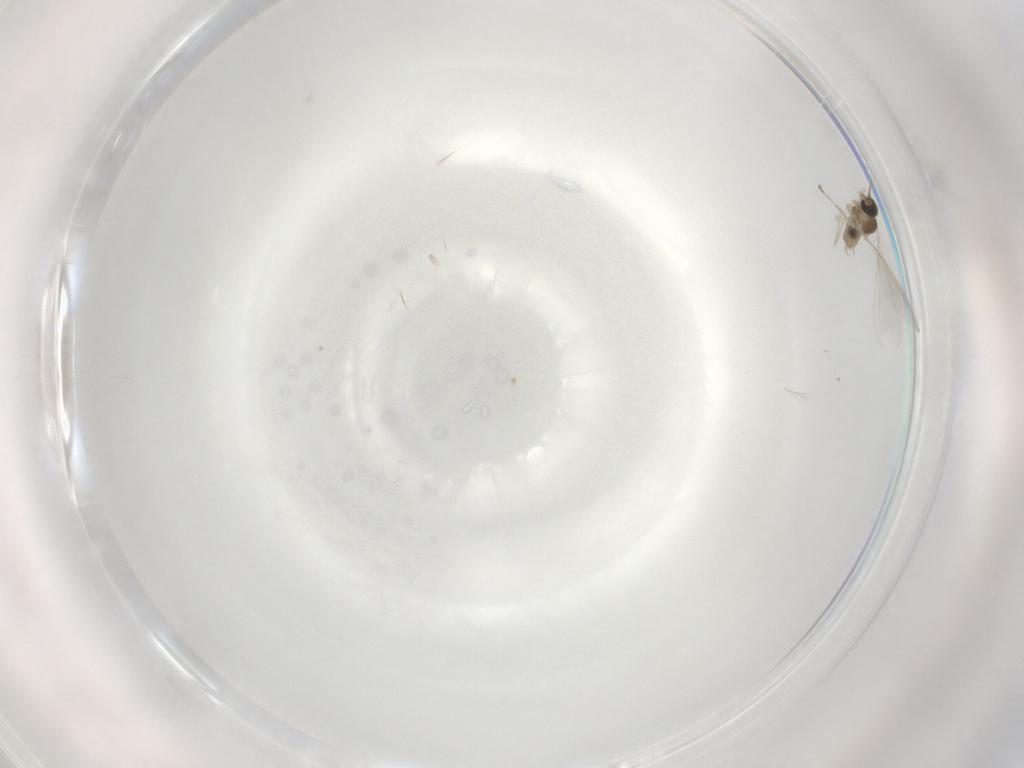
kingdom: Animalia
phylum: Arthropoda
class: Insecta
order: Diptera
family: Cecidomyiidae
